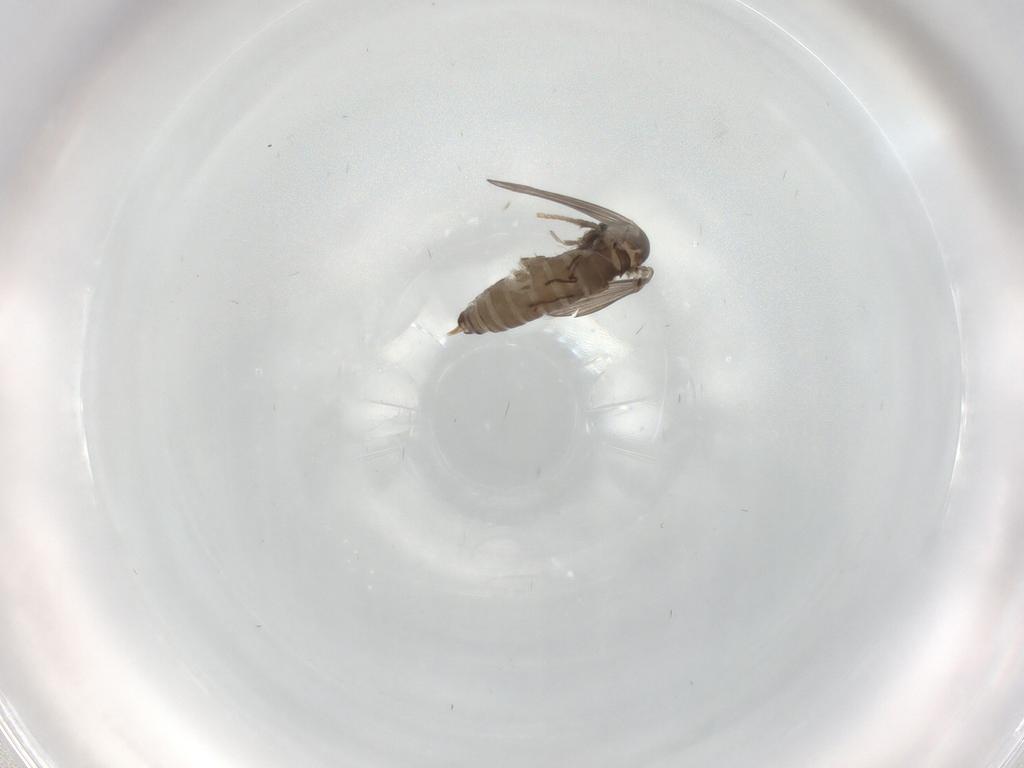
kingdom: Animalia
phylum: Arthropoda
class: Insecta
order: Diptera
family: Psychodidae
